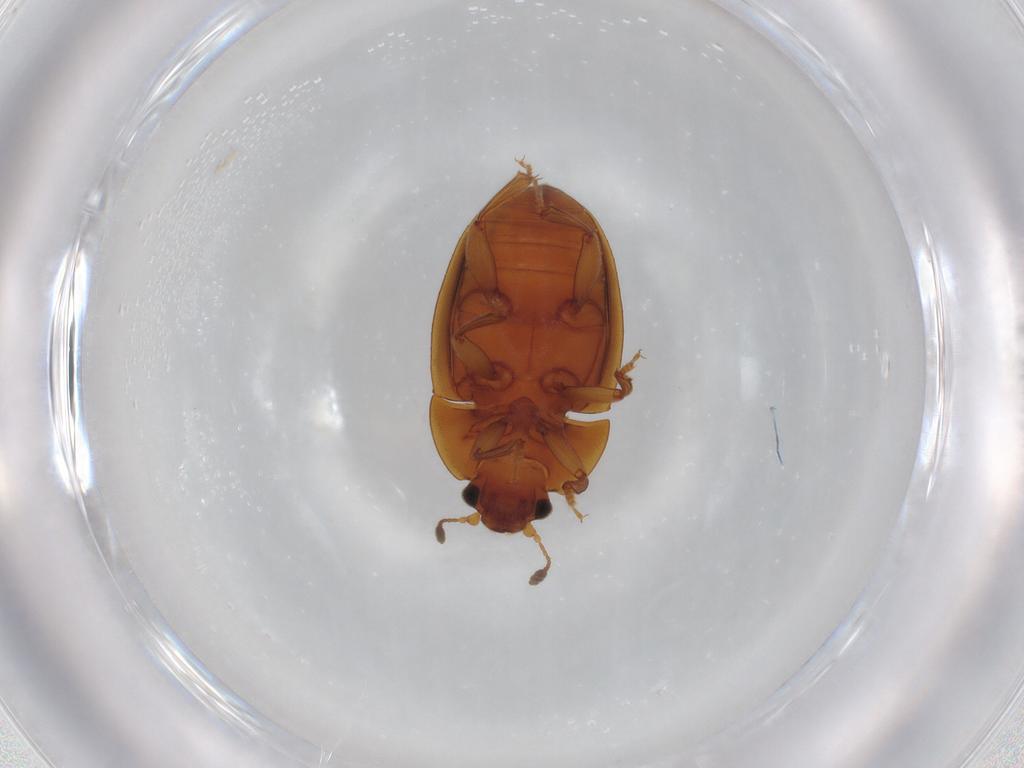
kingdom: Animalia
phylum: Arthropoda
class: Insecta
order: Coleoptera
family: Nitidulidae
